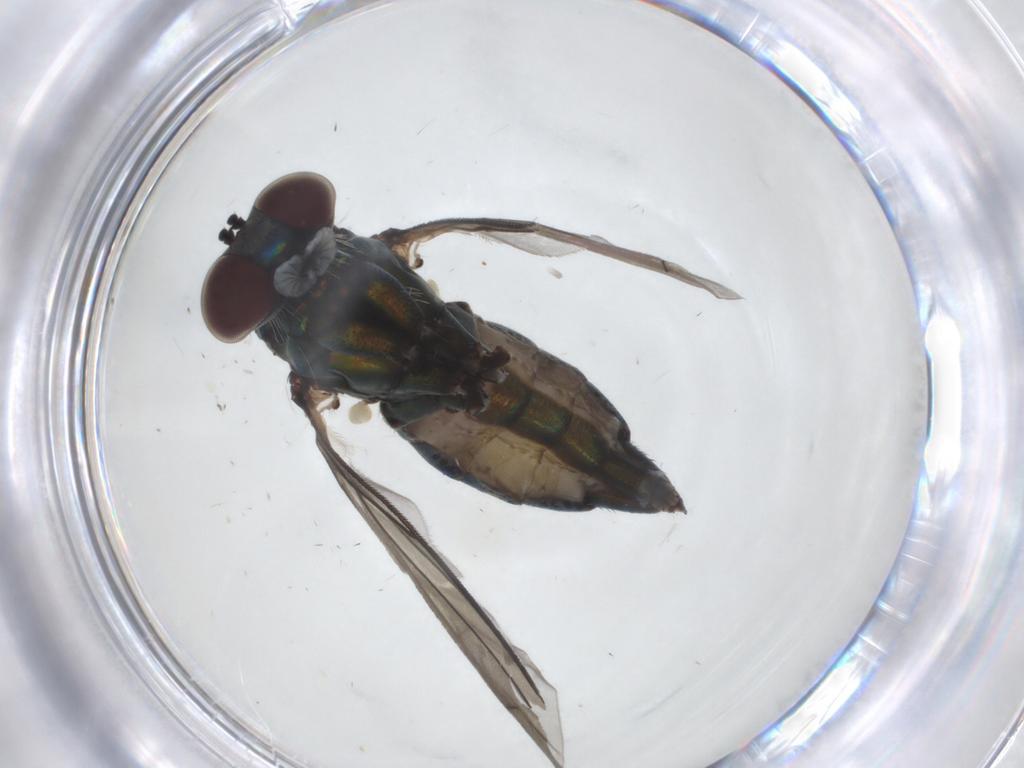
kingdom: Animalia
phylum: Arthropoda
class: Insecta
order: Diptera
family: Dolichopodidae
